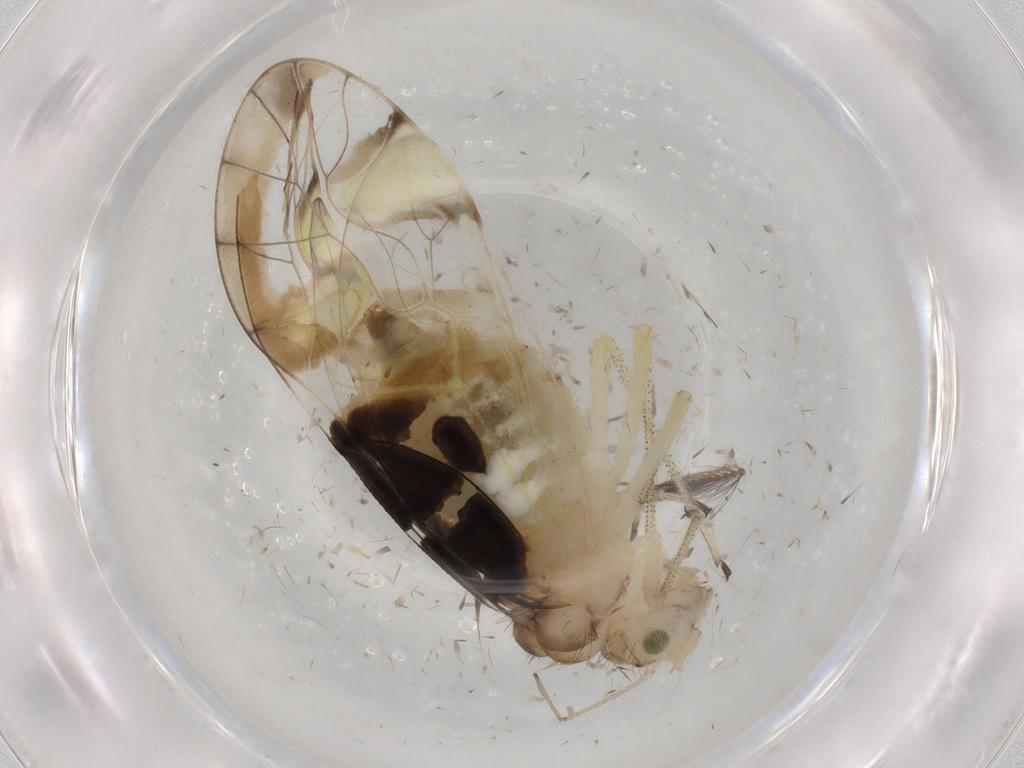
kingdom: Animalia
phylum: Arthropoda
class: Insecta
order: Psocodea
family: Amphipsocidae
